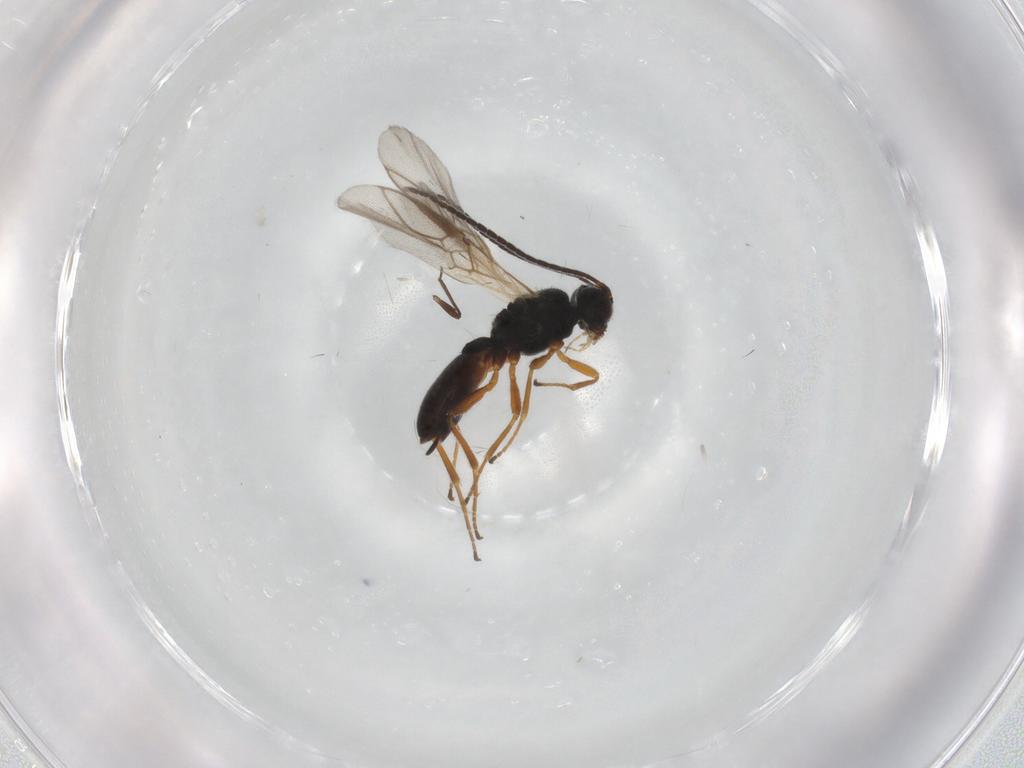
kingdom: Animalia
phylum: Arthropoda
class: Insecta
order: Hymenoptera
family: Braconidae
